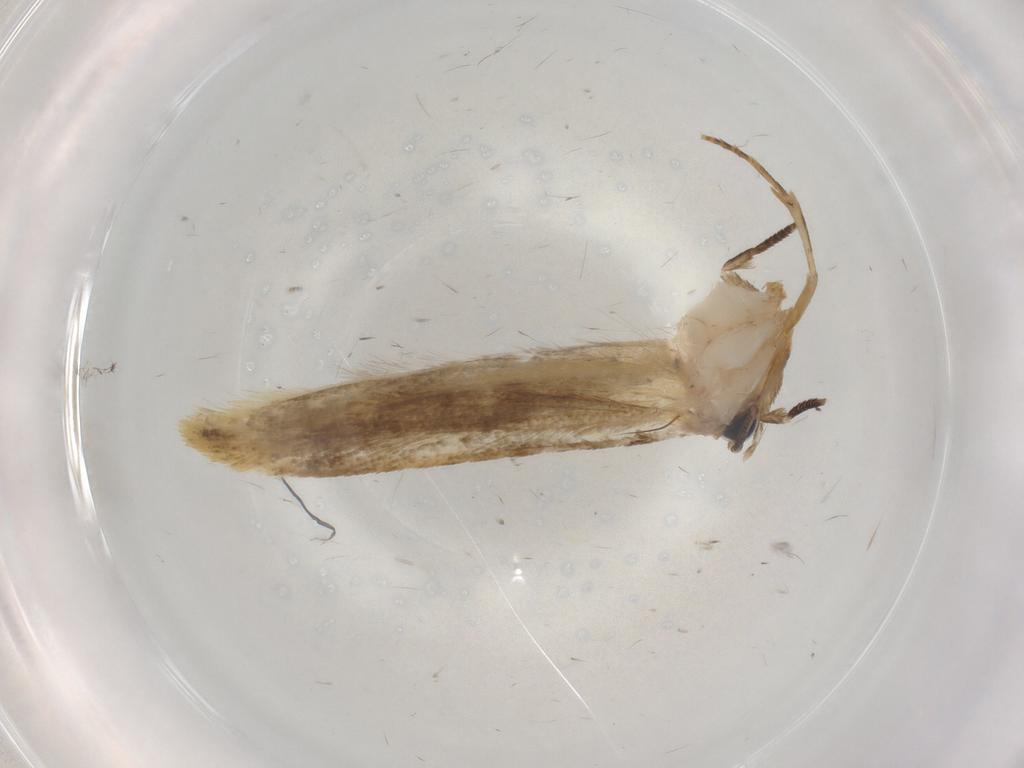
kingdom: Animalia
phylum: Arthropoda
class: Insecta
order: Lepidoptera
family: Tineidae
